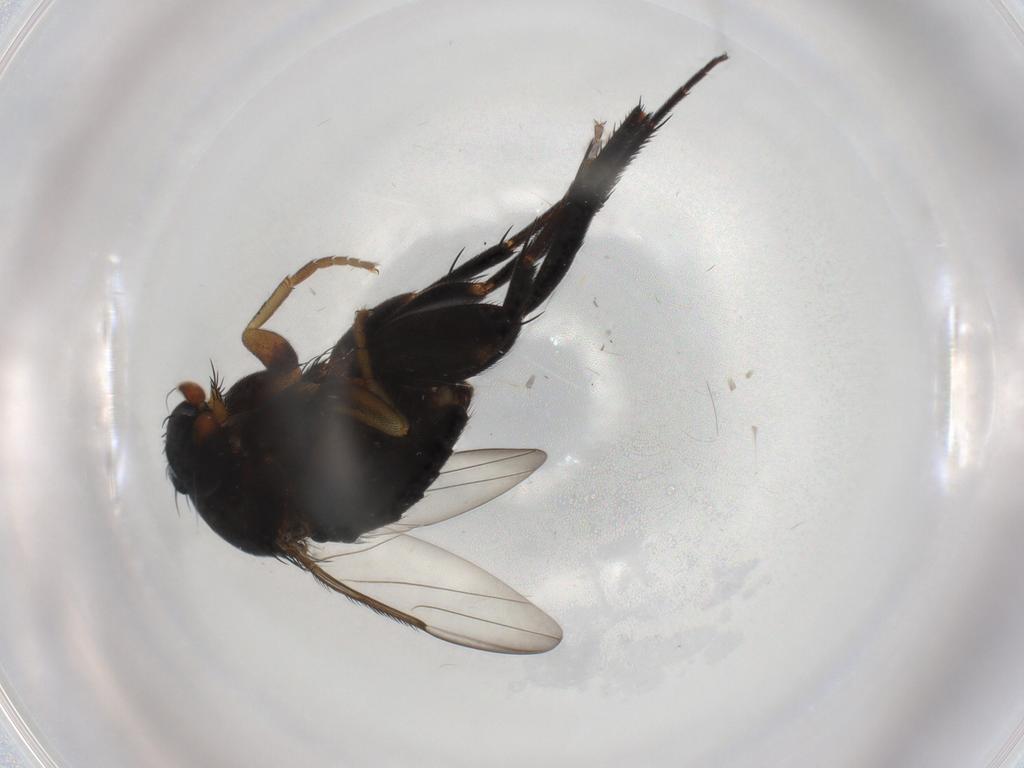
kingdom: Animalia
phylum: Arthropoda
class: Insecta
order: Diptera
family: Phoridae
